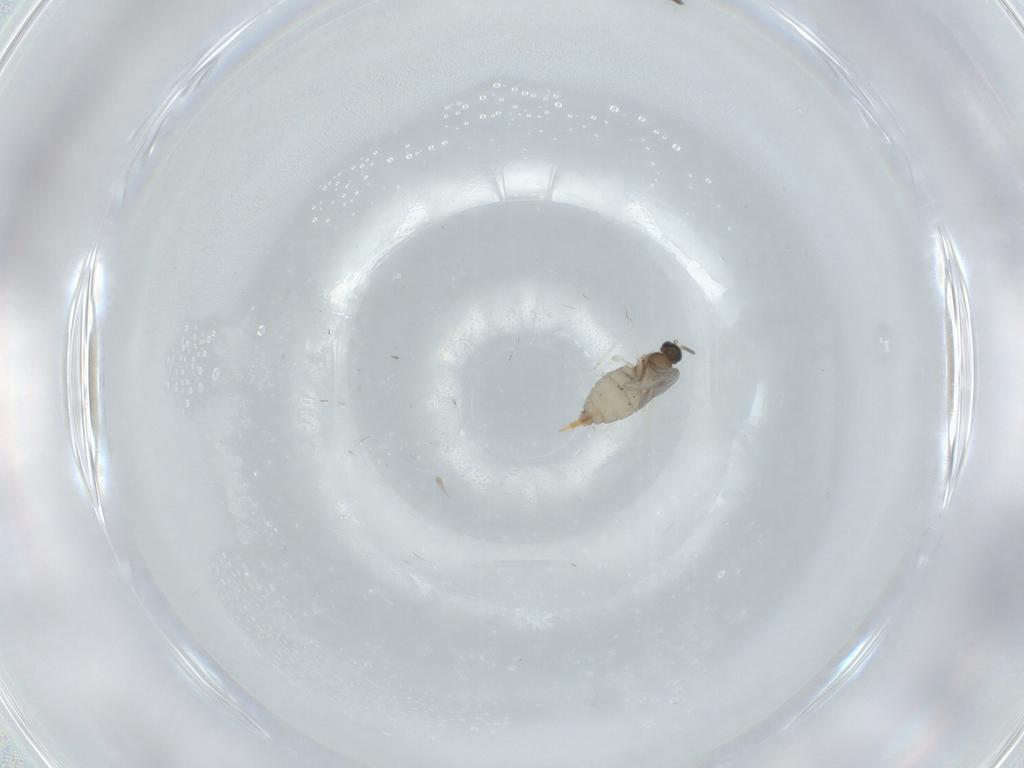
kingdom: Animalia
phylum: Arthropoda
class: Insecta
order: Diptera
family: Cecidomyiidae
